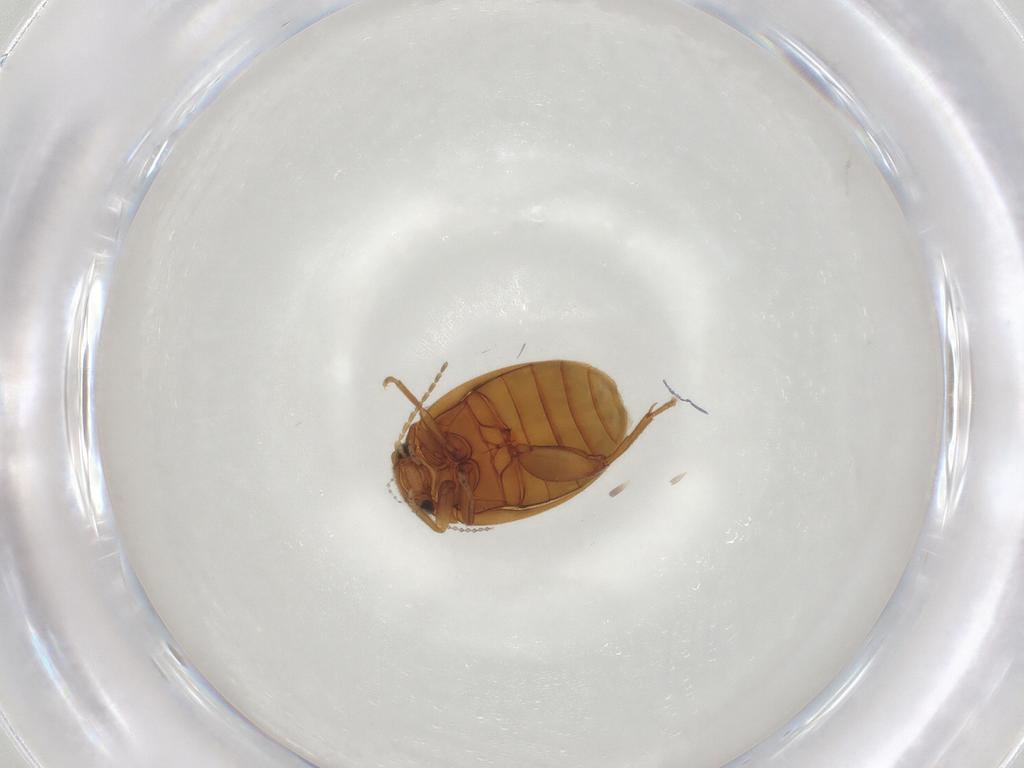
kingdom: Animalia
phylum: Arthropoda
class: Insecta
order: Coleoptera
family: Scirtidae
